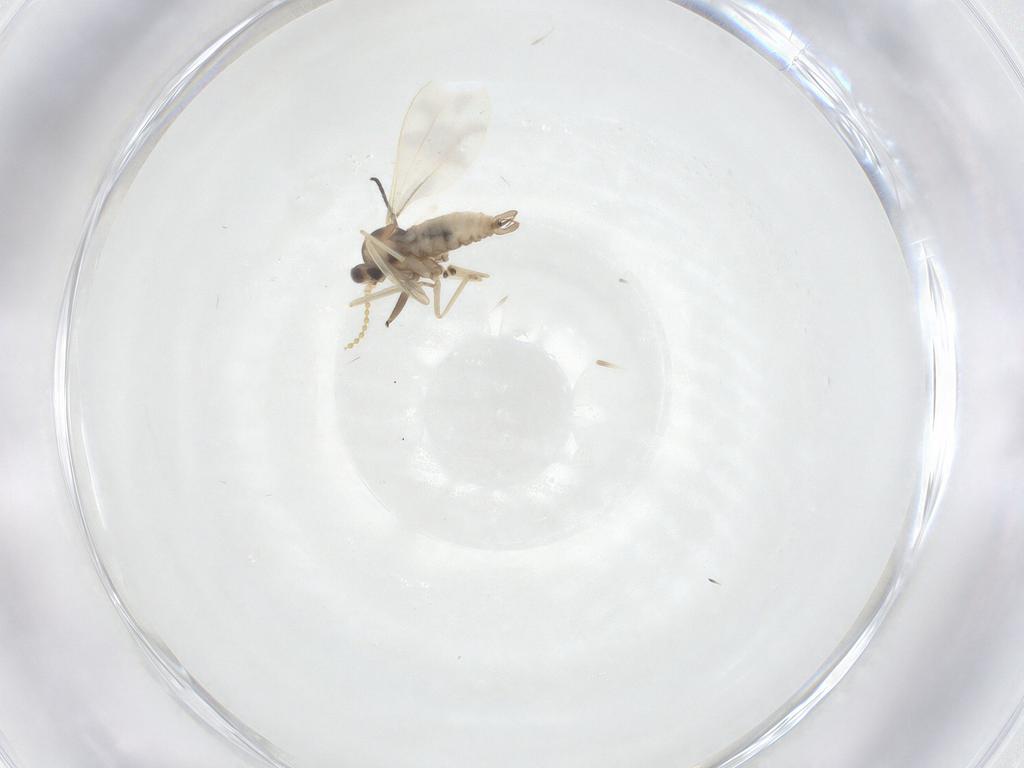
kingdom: Animalia
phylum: Arthropoda
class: Insecta
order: Diptera
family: Cecidomyiidae
